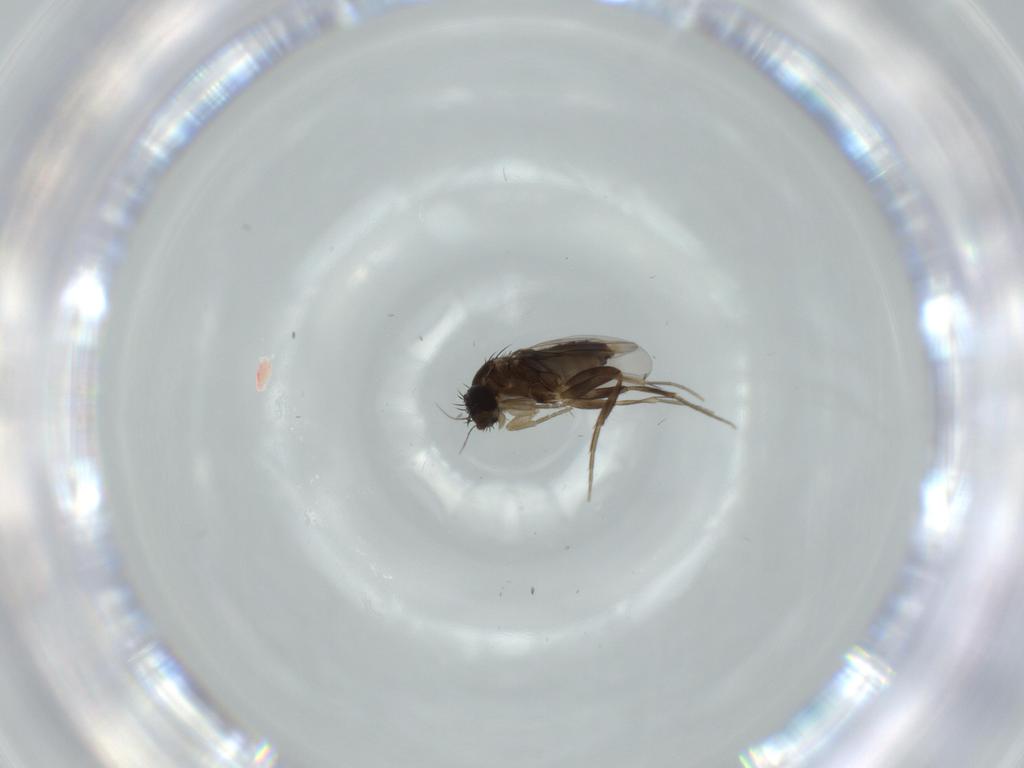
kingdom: Animalia
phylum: Arthropoda
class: Insecta
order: Diptera
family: Phoridae
